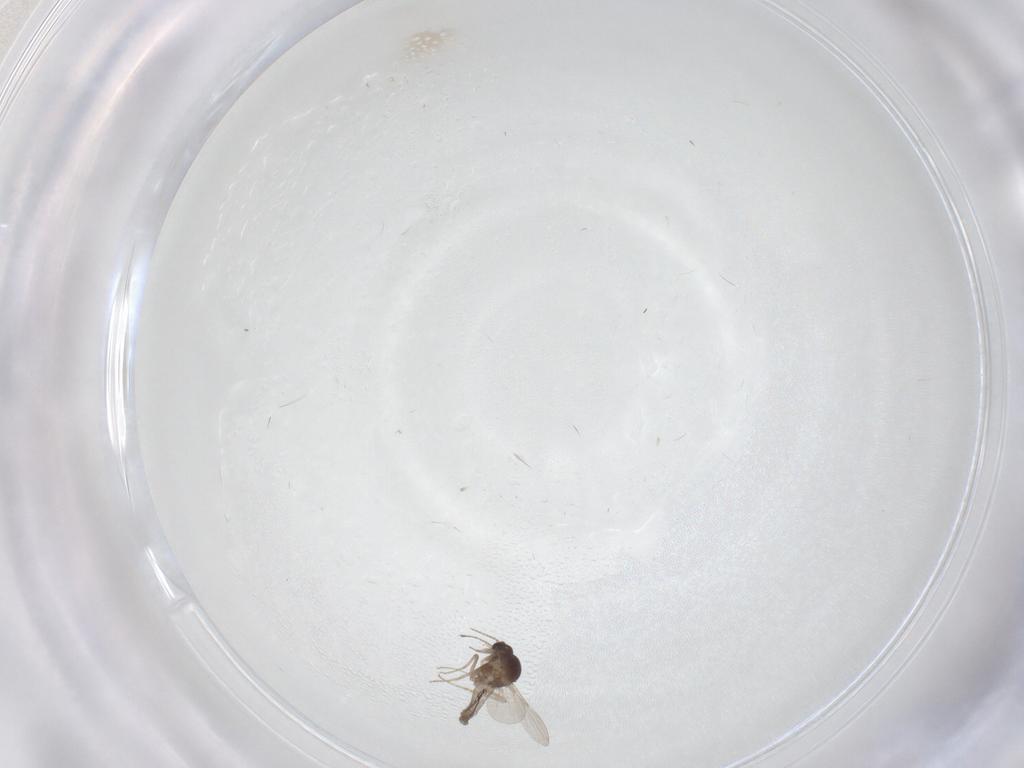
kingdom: Animalia
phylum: Arthropoda
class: Insecta
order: Diptera
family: Ceratopogonidae
